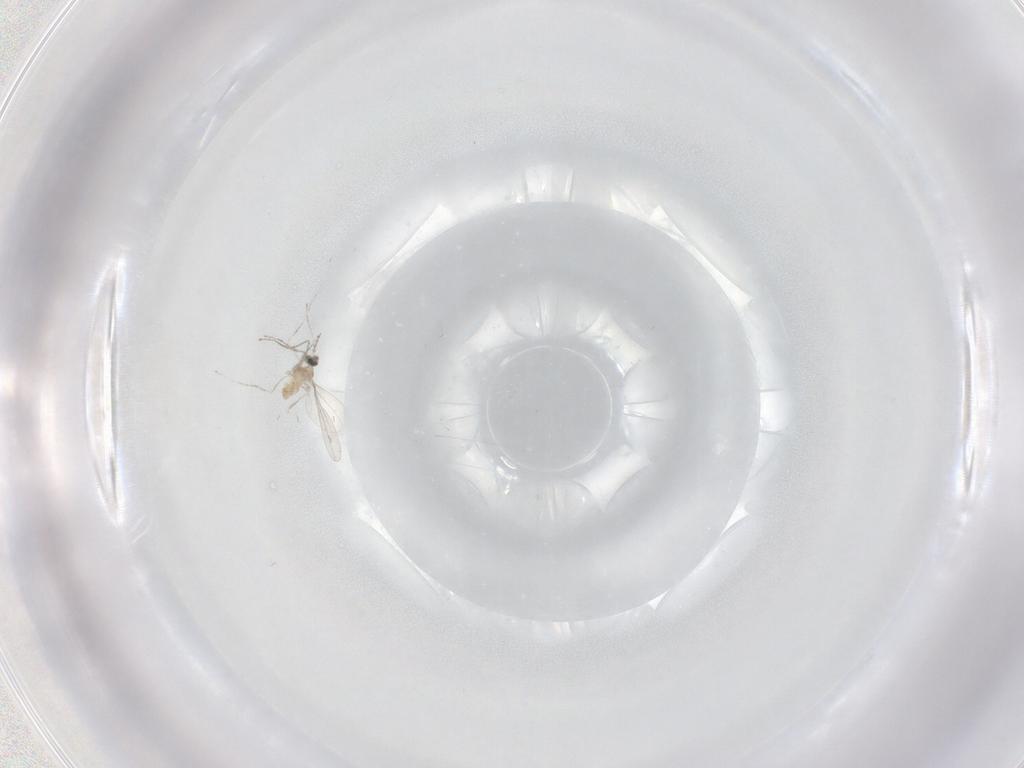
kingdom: Animalia
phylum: Arthropoda
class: Insecta
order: Diptera
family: Cecidomyiidae
